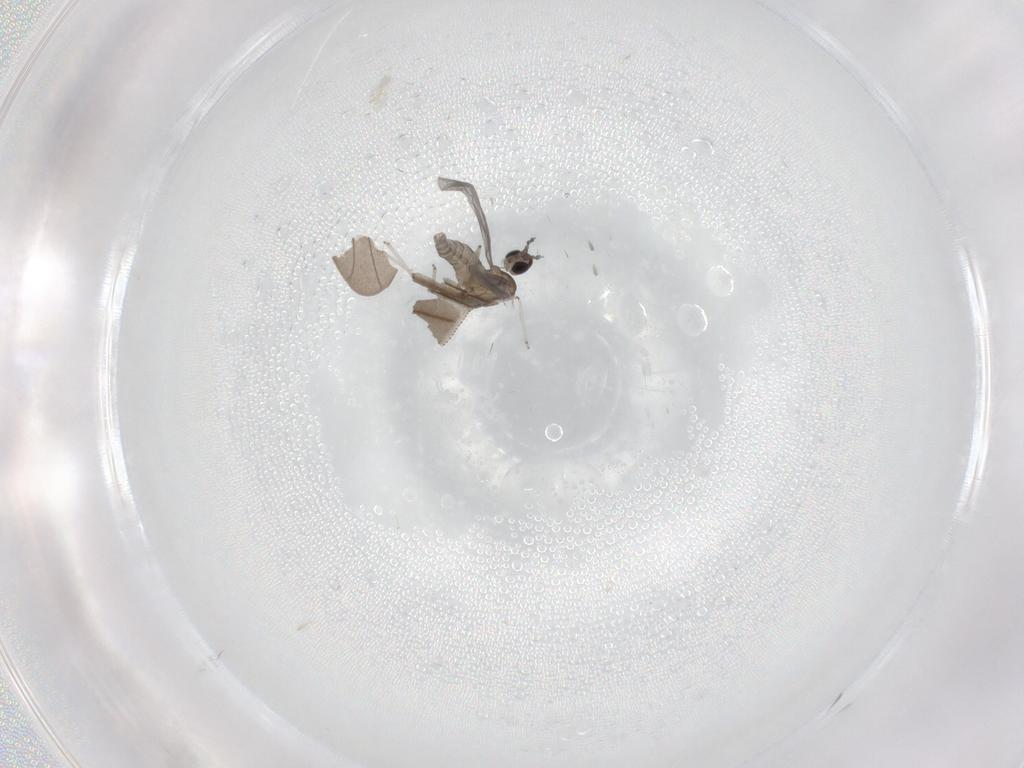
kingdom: Animalia
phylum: Arthropoda
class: Insecta
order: Diptera
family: Cecidomyiidae
